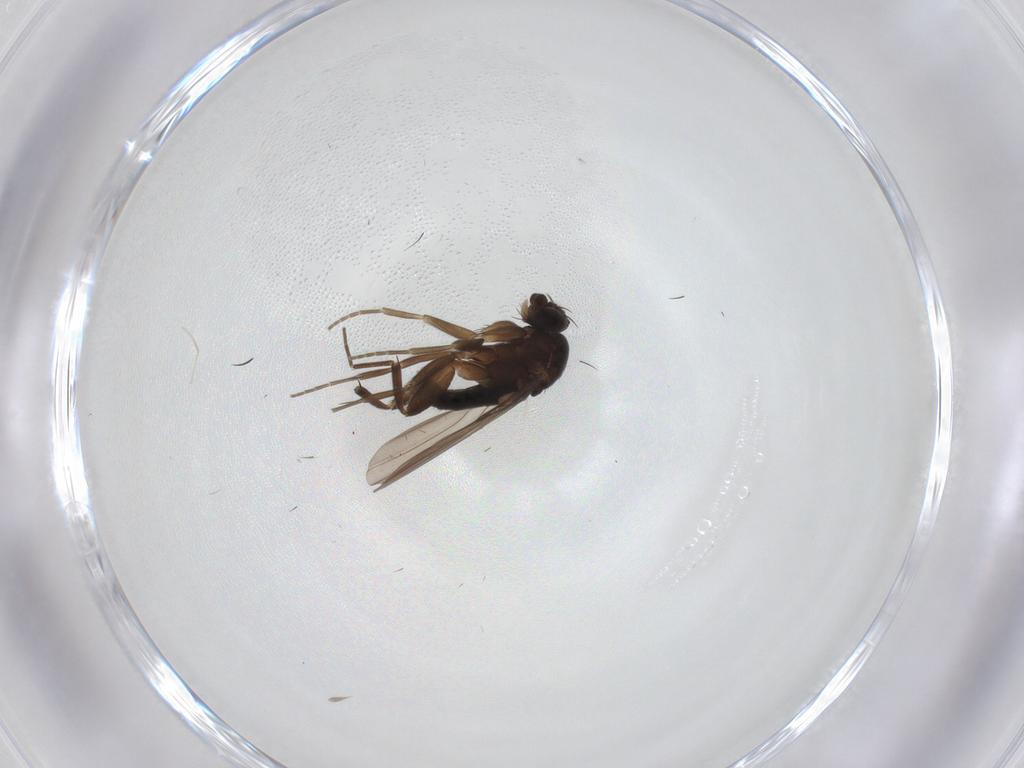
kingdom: Animalia
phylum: Arthropoda
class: Insecta
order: Diptera
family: Phoridae
